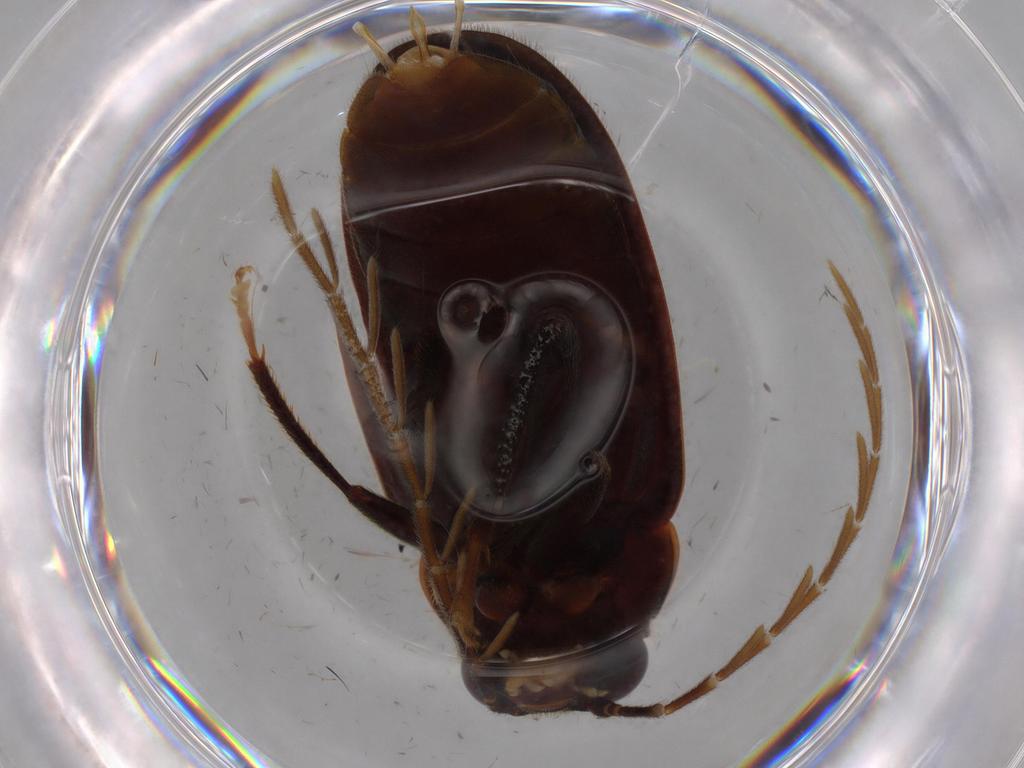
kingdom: Animalia
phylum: Arthropoda
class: Insecta
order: Coleoptera
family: Ptilodactylidae
